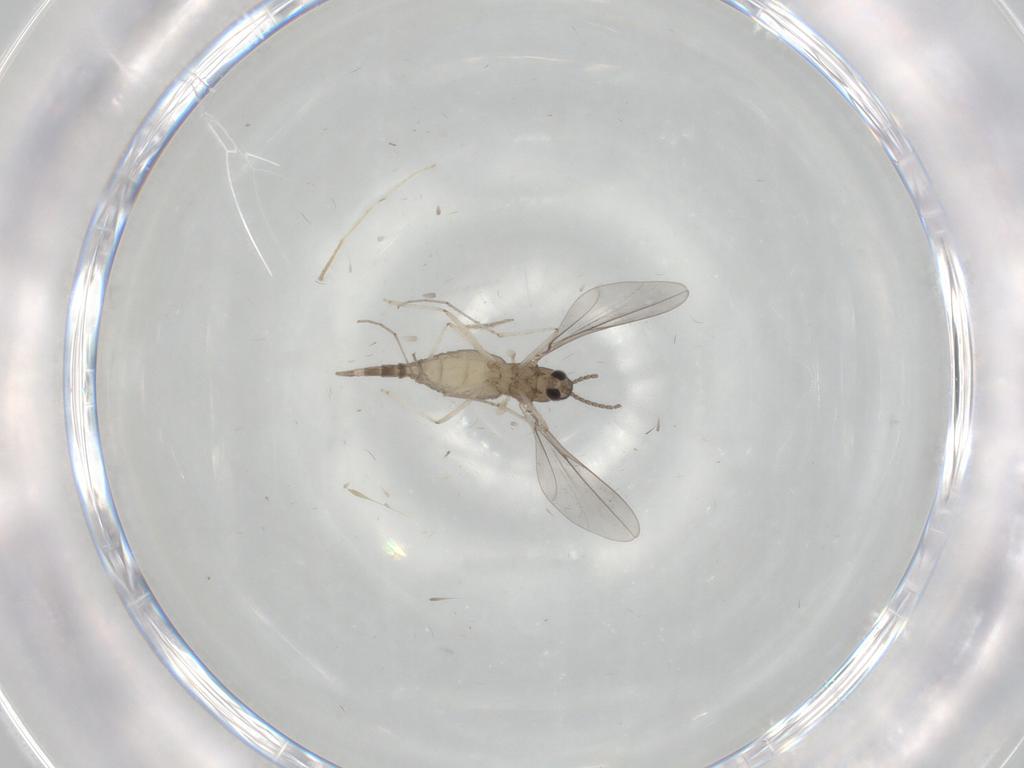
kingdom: Animalia
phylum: Arthropoda
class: Insecta
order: Diptera
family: Cecidomyiidae
